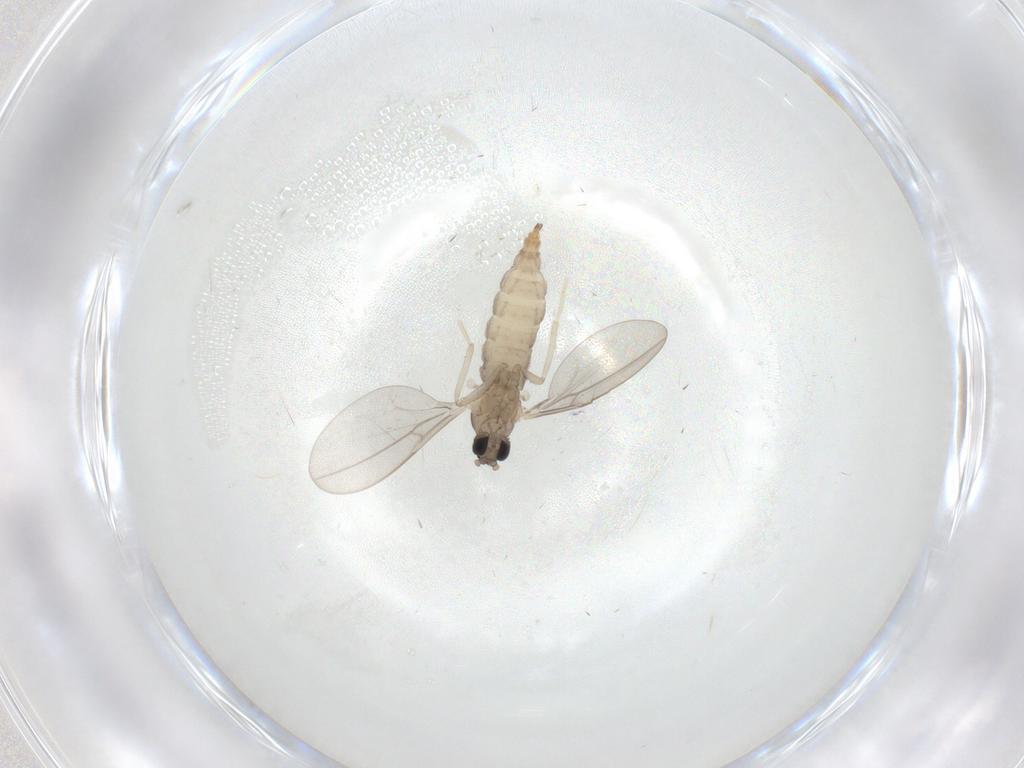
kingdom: Animalia
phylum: Arthropoda
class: Insecta
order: Diptera
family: Cecidomyiidae
